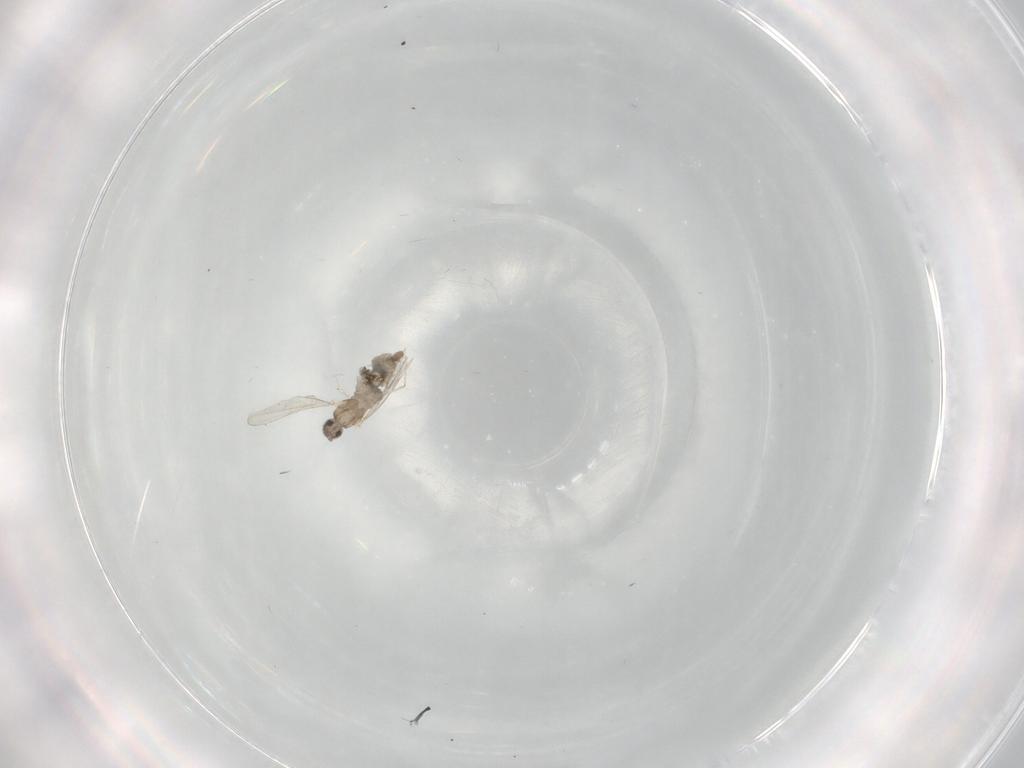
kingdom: Animalia
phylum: Arthropoda
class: Insecta
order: Diptera
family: Cecidomyiidae
